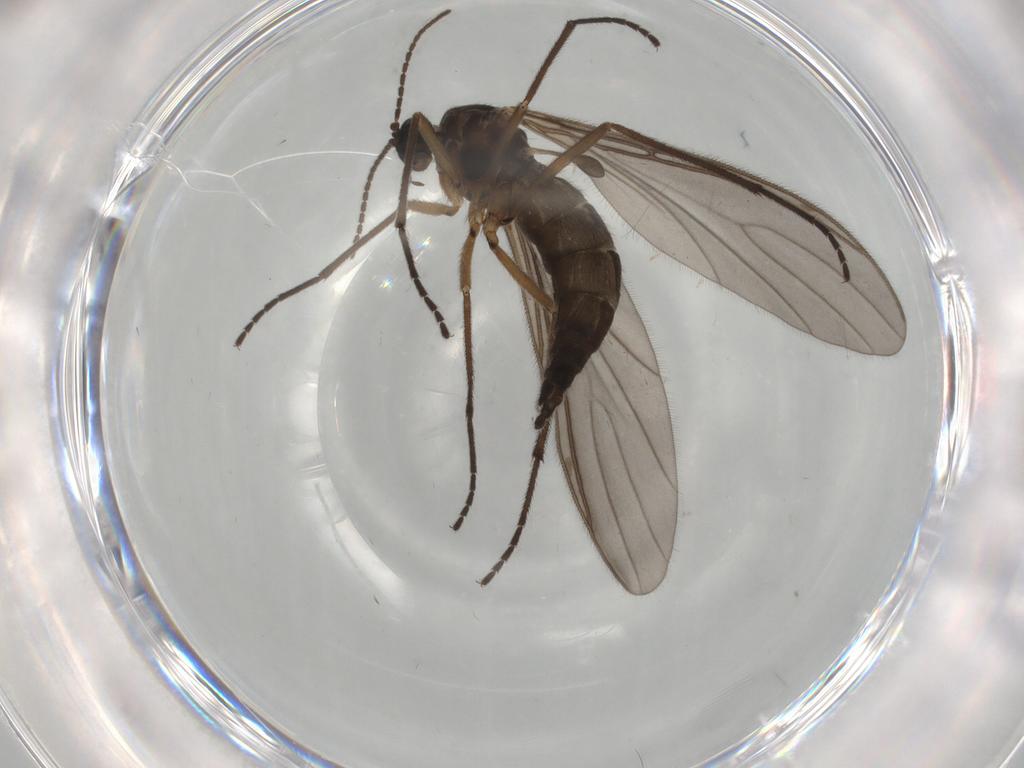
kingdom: Animalia
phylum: Arthropoda
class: Insecta
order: Diptera
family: Sciaridae
